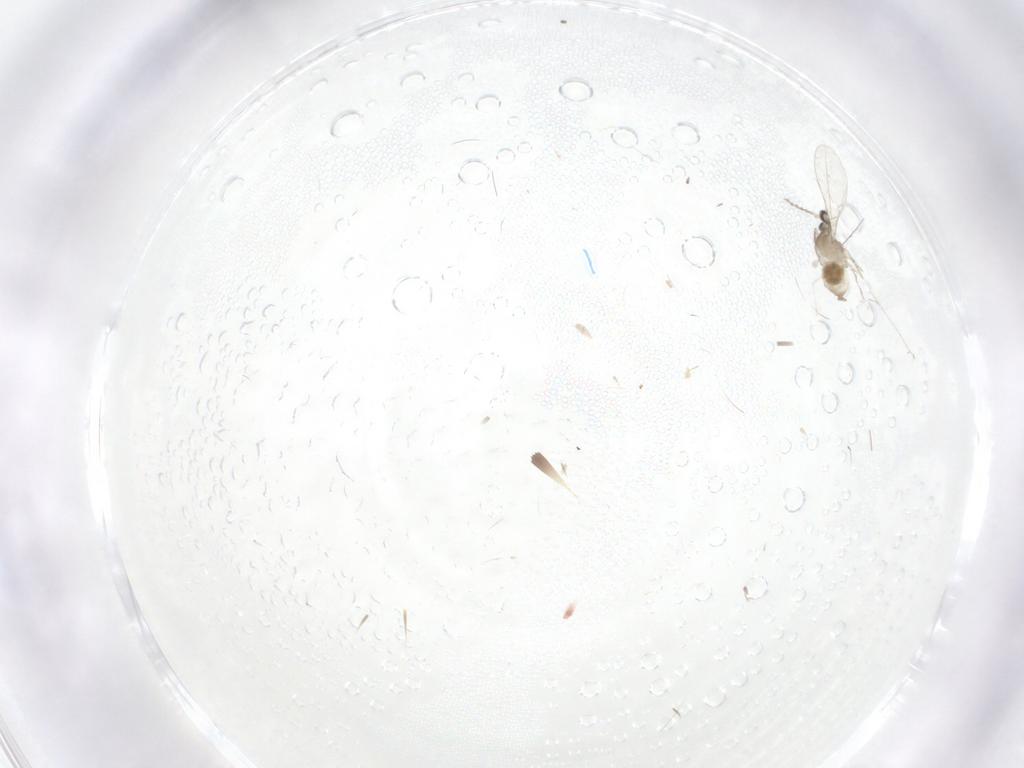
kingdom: Animalia
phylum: Arthropoda
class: Insecta
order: Diptera
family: Cecidomyiidae
